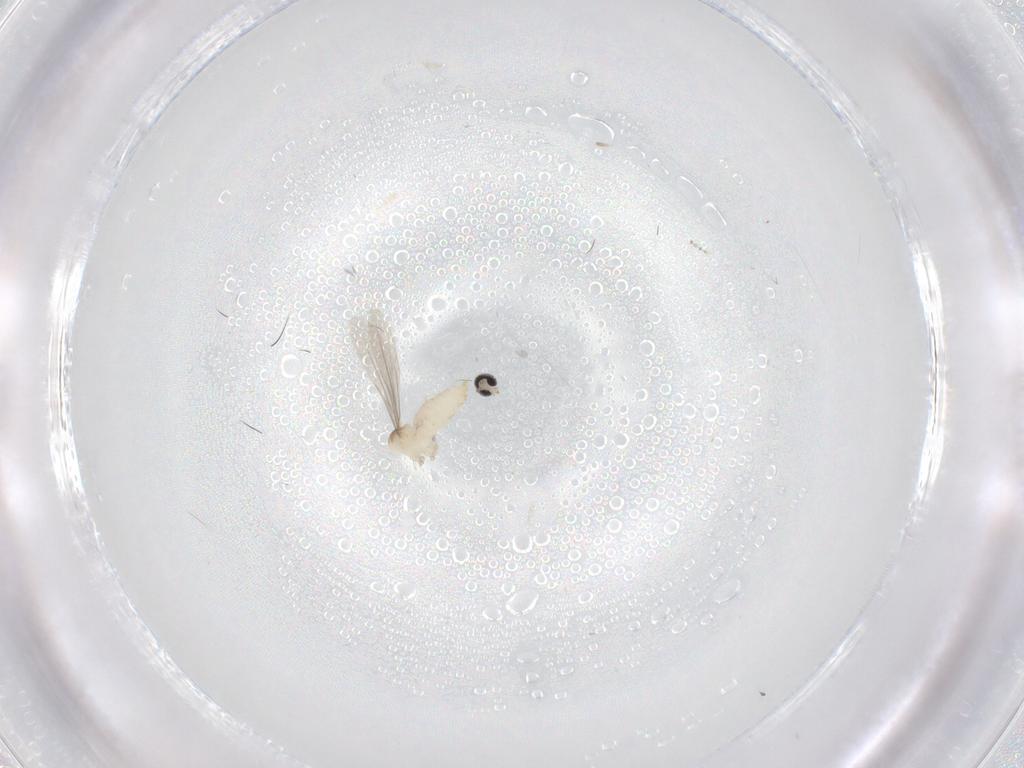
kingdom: Animalia
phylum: Arthropoda
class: Insecta
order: Diptera
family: Cecidomyiidae
